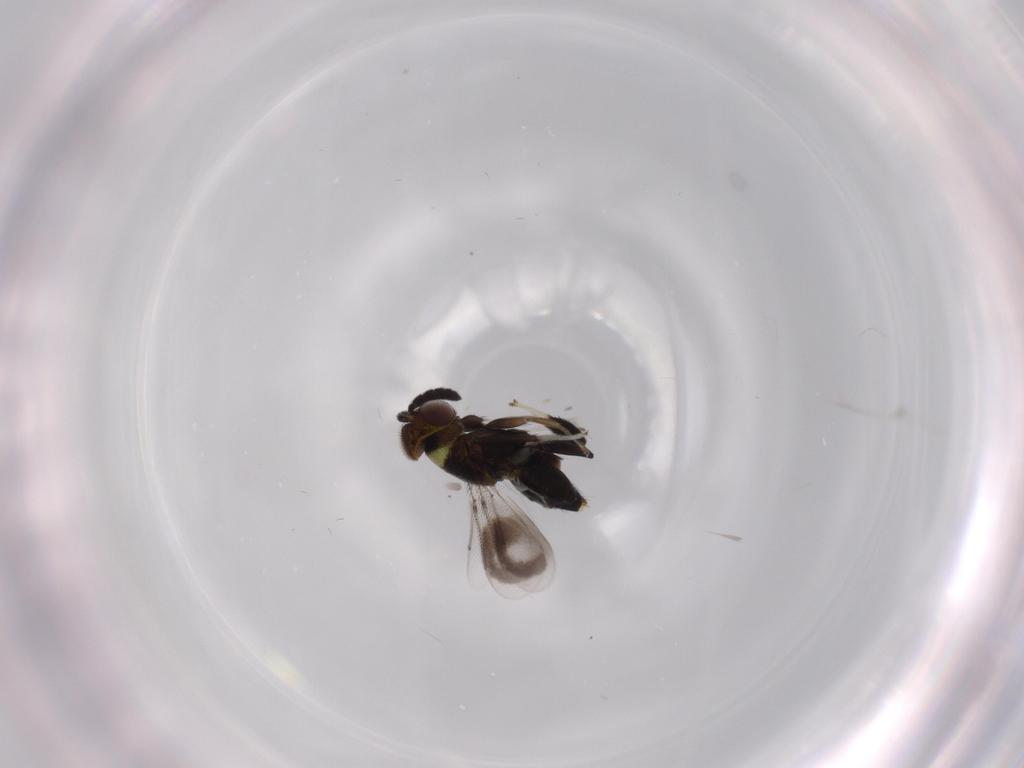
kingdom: Animalia
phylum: Arthropoda
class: Insecta
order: Hymenoptera
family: Aphelinidae
